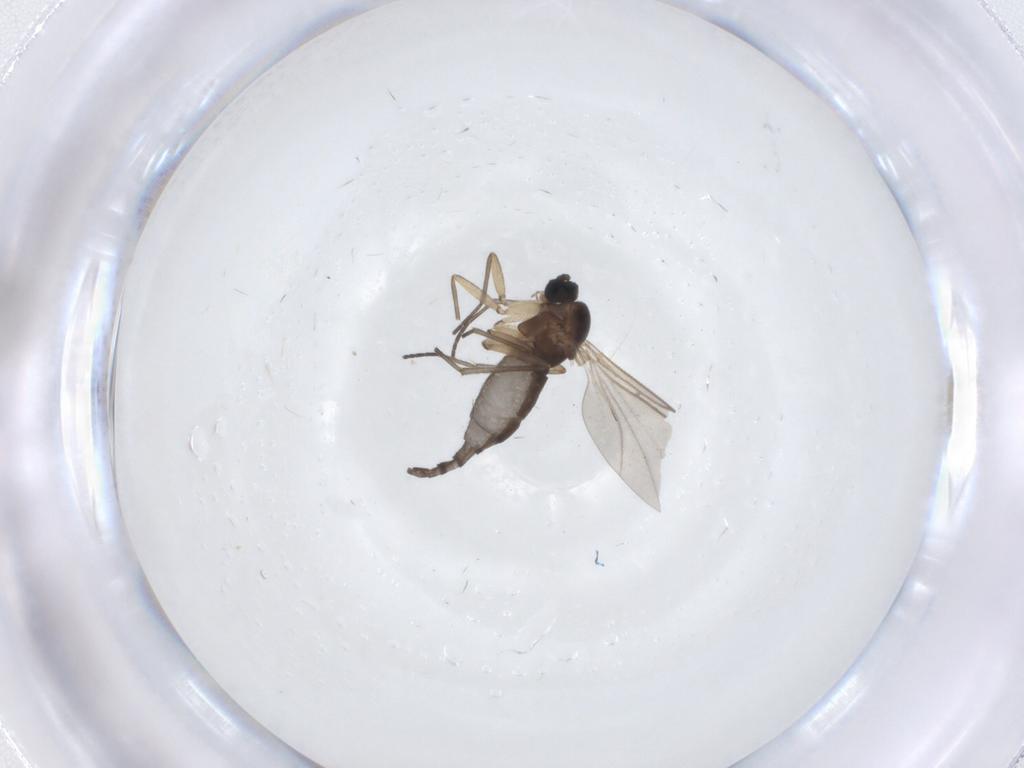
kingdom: Animalia
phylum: Arthropoda
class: Insecta
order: Diptera
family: Sciaridae
